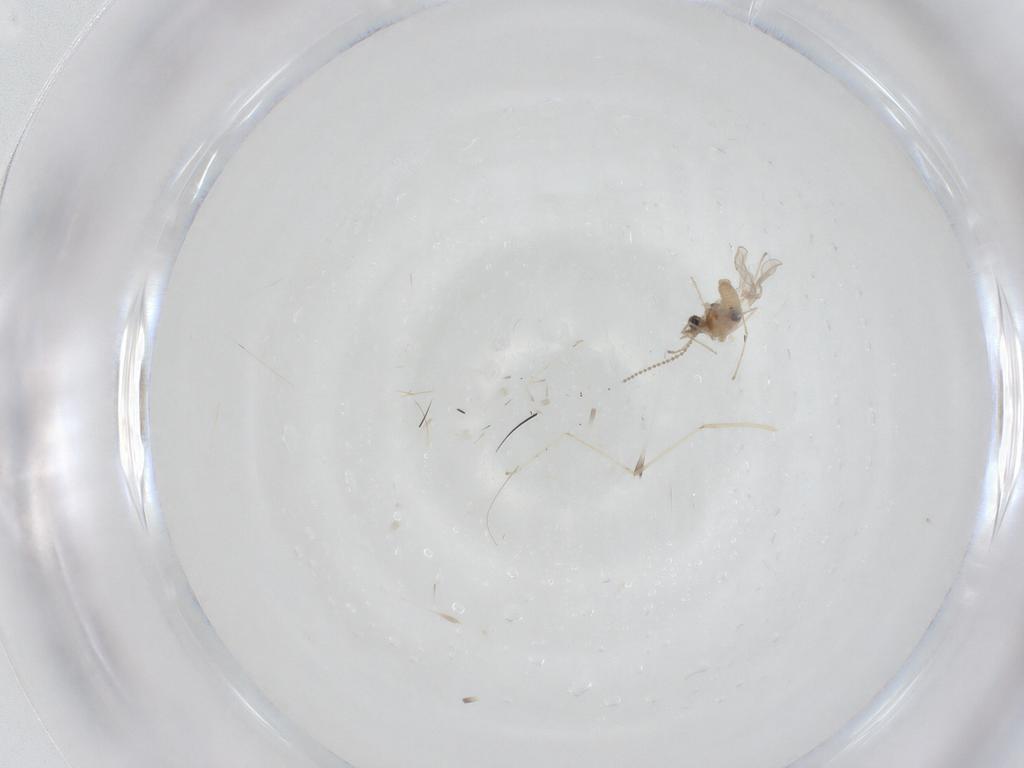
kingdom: Animalia
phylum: Arthropoda
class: Insecta
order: Diptera
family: Cecidomyiidae
